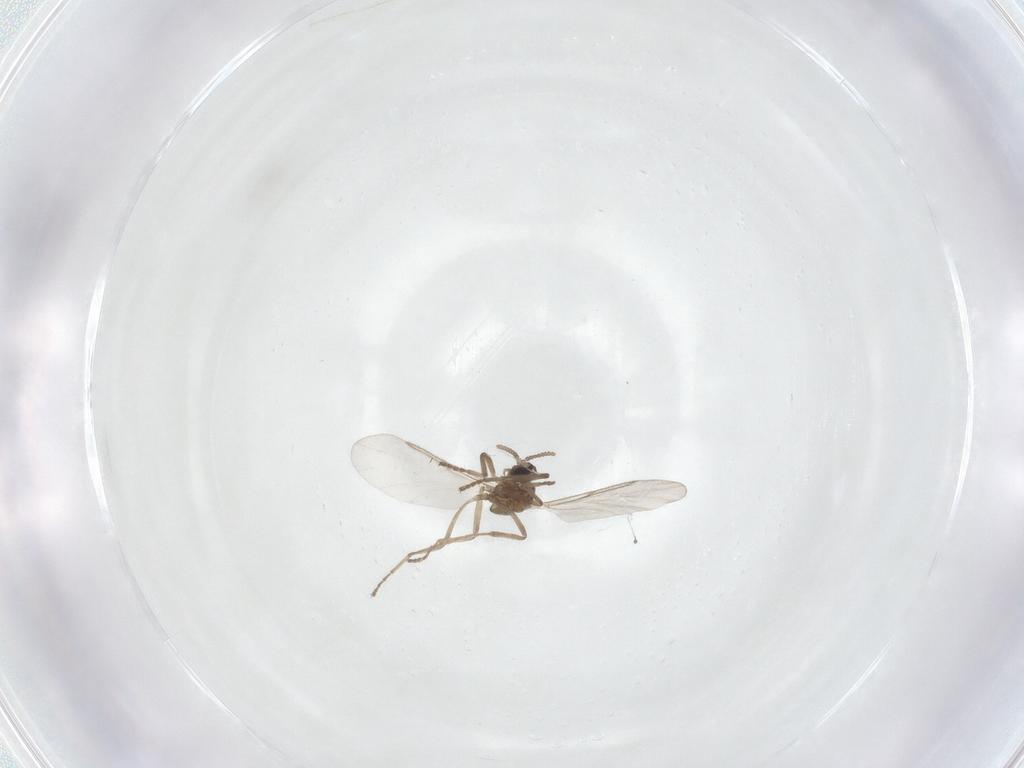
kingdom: Animalia
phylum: Arthropoda
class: Insecta
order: Diptera
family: Cecidomyiidae
